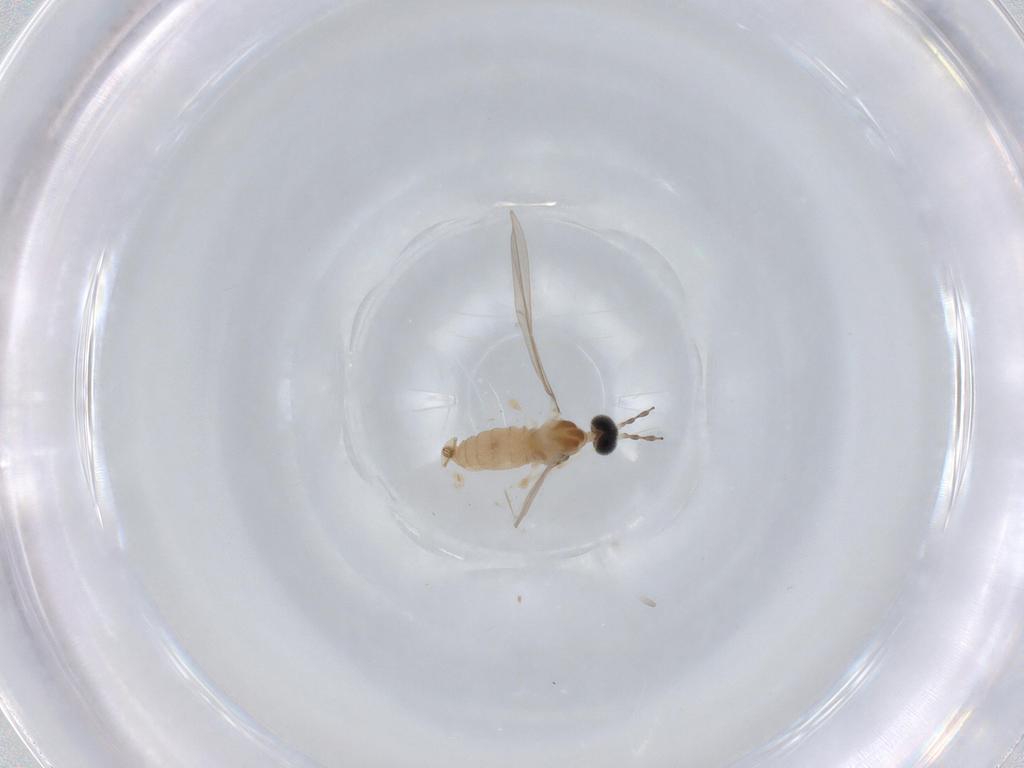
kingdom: Animalia
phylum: Arthropoda
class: Insecta
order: Diptera
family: Cecidomyiidae
